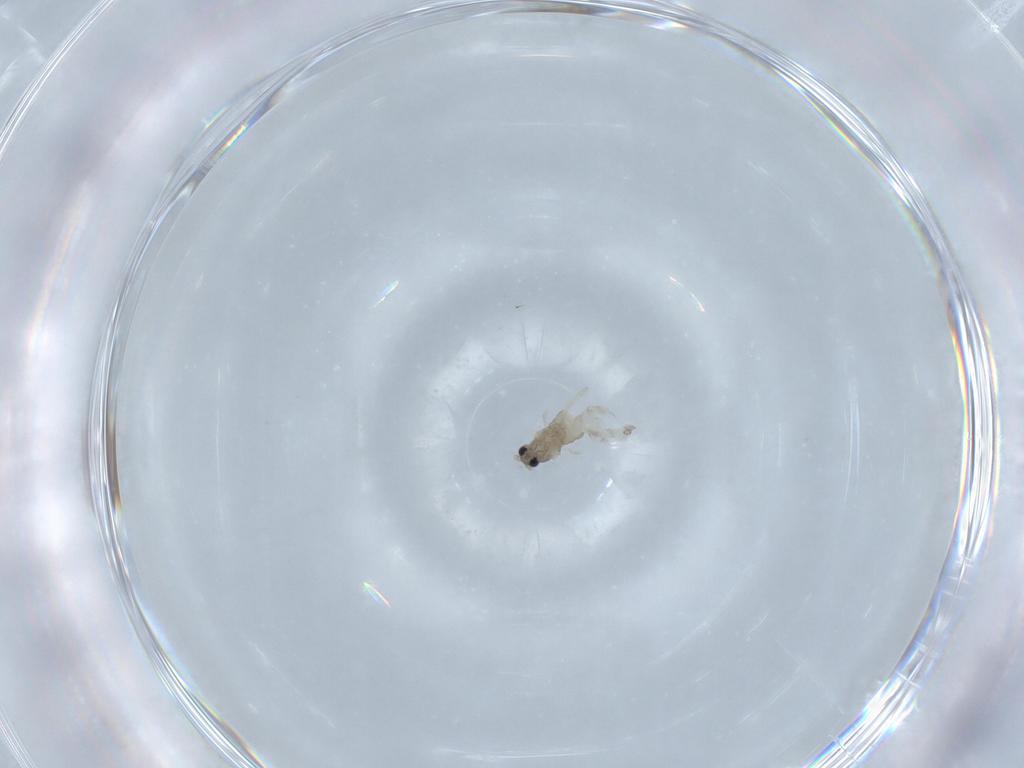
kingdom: Animalia
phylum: Arthropoda
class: Insecta
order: Diptera
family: Cecidomyiidae
